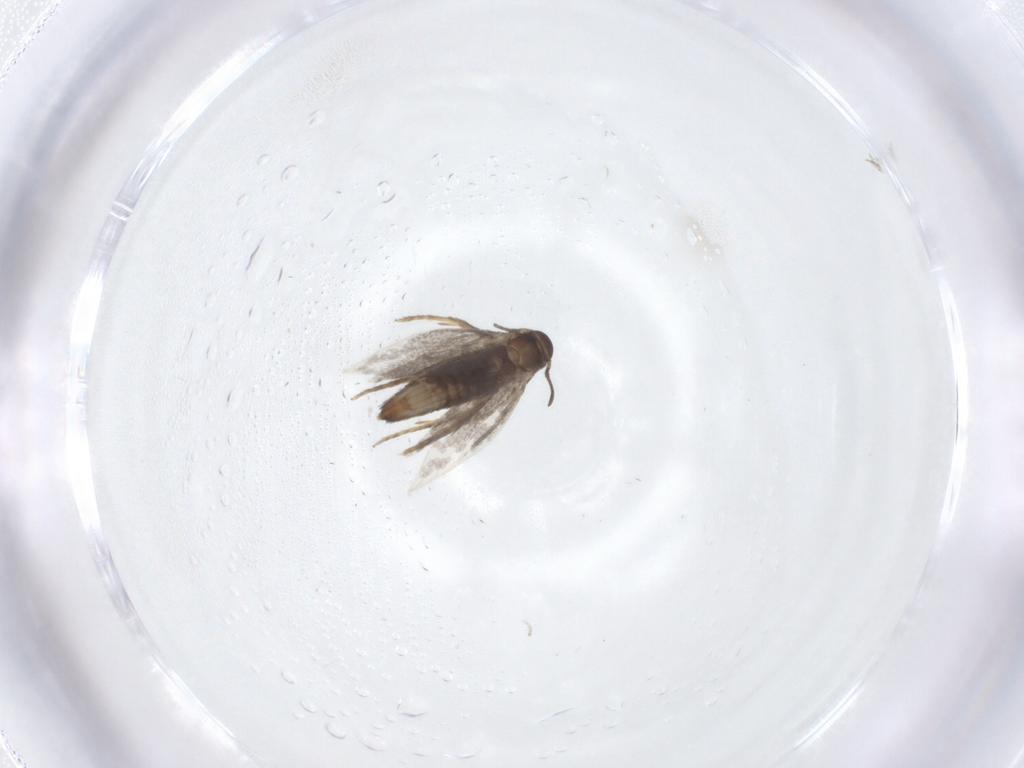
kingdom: Animalia
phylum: Arthropoda
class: Insecta
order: Lepidoptera
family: Heliozelidae
